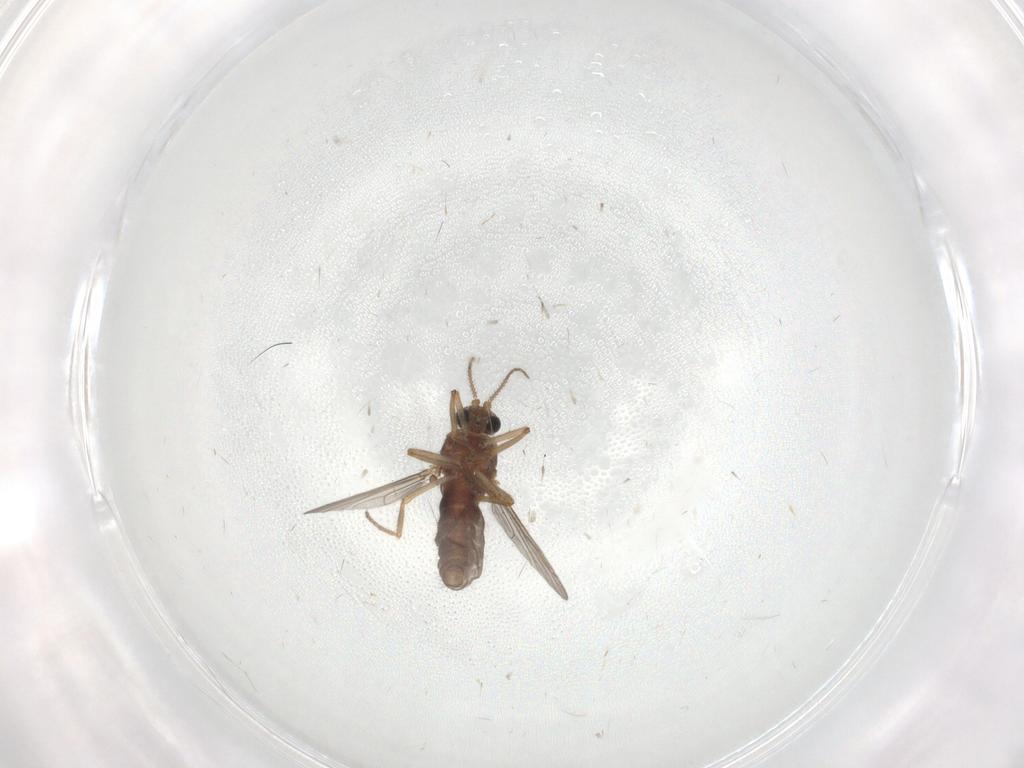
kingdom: Animalia
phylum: Arthropoda
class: Insecta
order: Diptera
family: Ceratopogonidae
